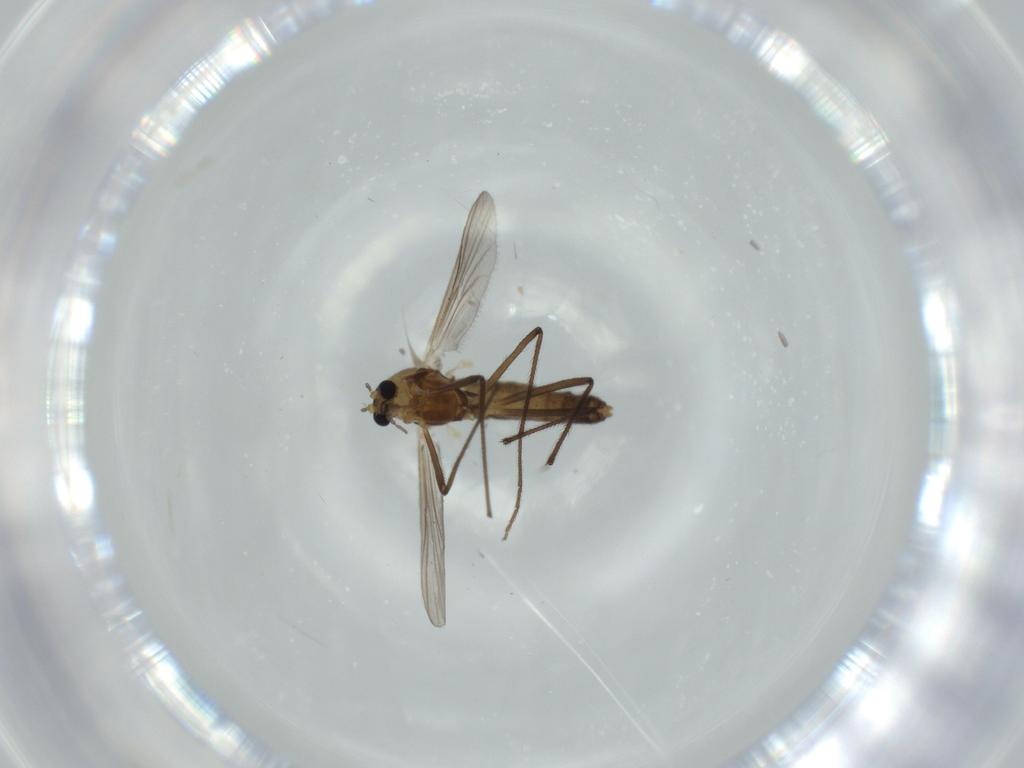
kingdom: Animalia
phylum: Arthropoda
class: Insecta
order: Diptera
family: Chironomidae
